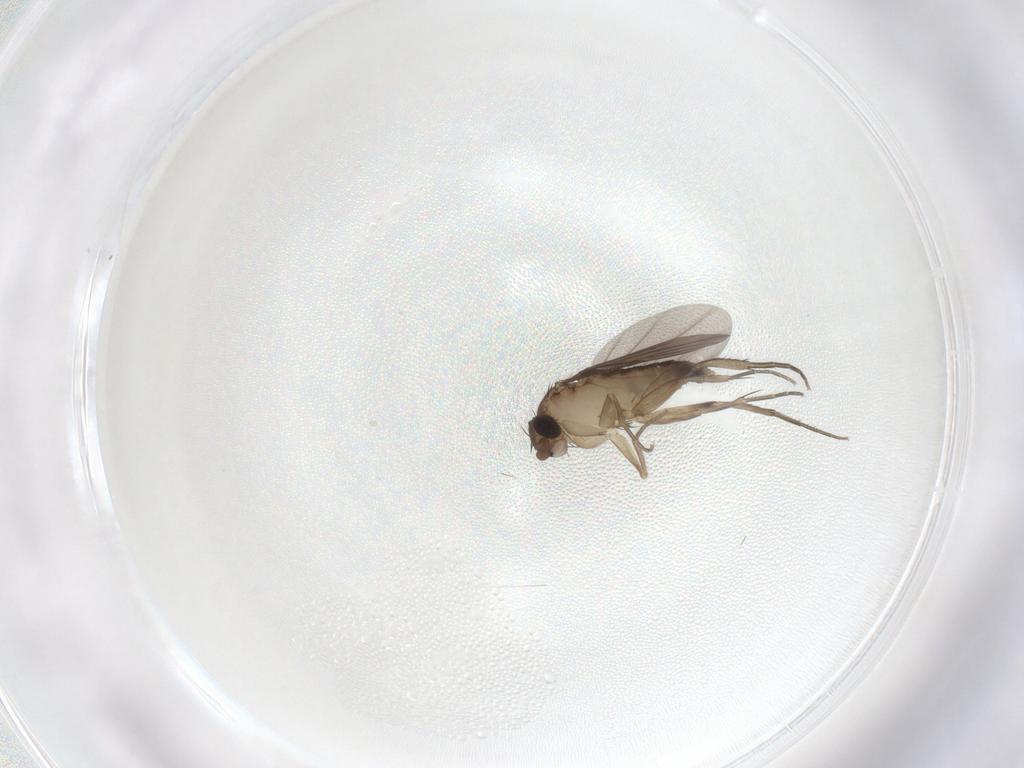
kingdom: Animalia
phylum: Arthropoda
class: Insecta
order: Diptera
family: Phoridae
